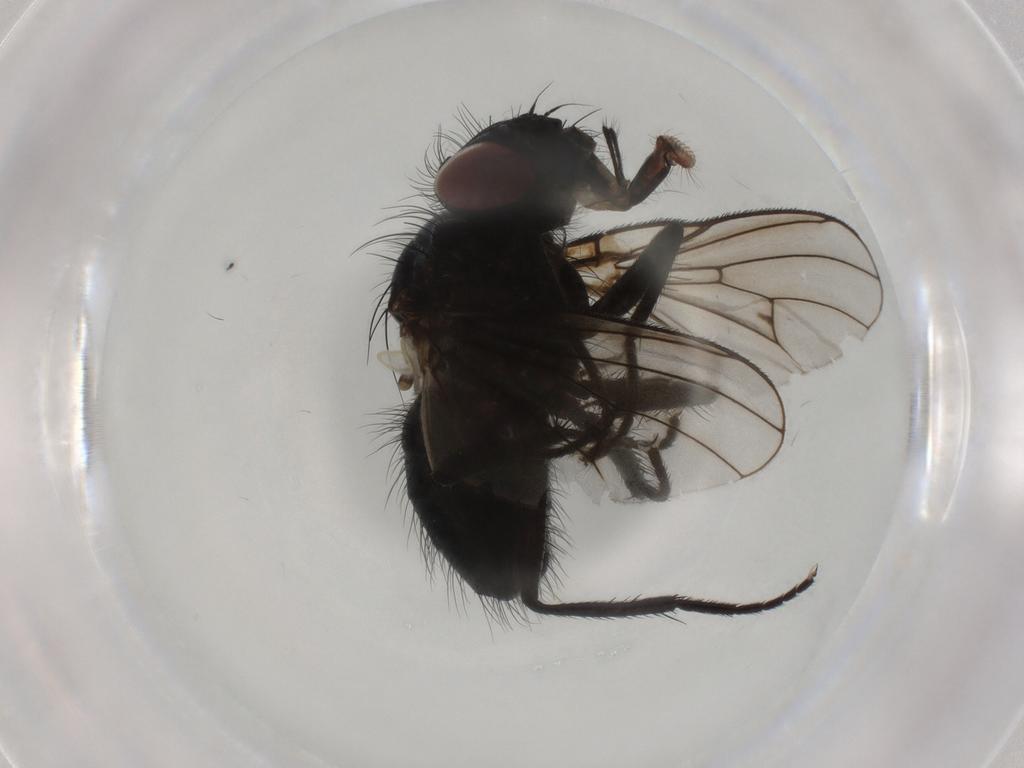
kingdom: Animalia
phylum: Arthropoda
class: Insecta
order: Diptera
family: Muscidae
